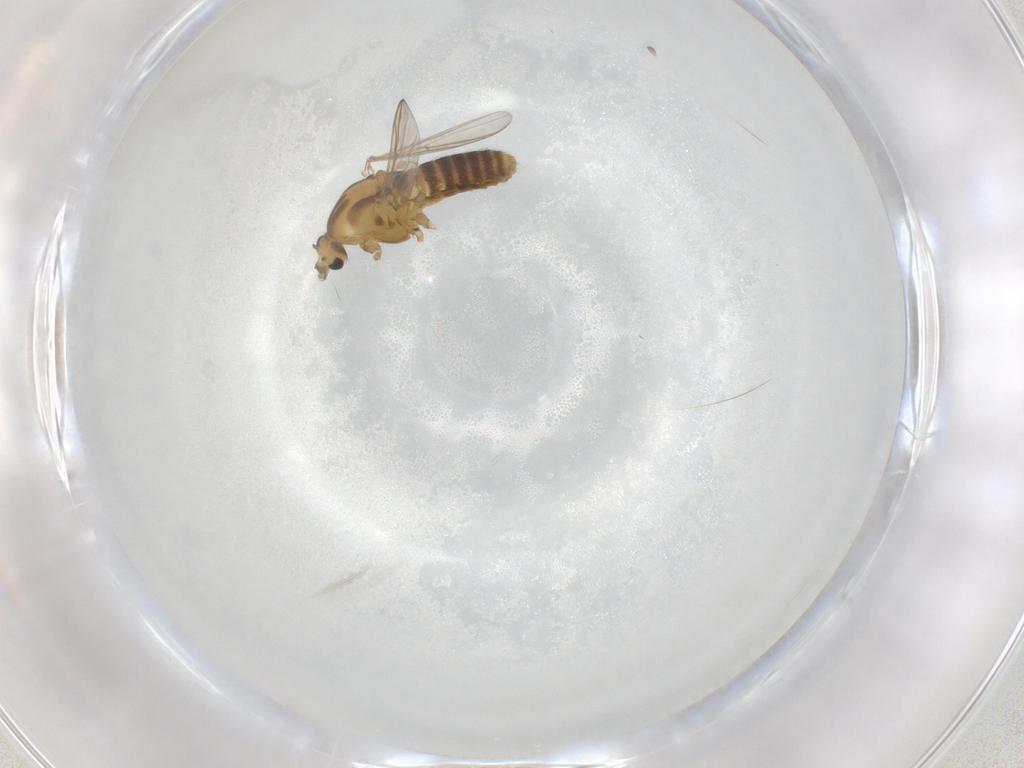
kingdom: Animalia
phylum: Arthropoda
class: Insecta
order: Diptera
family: Chironomidae
